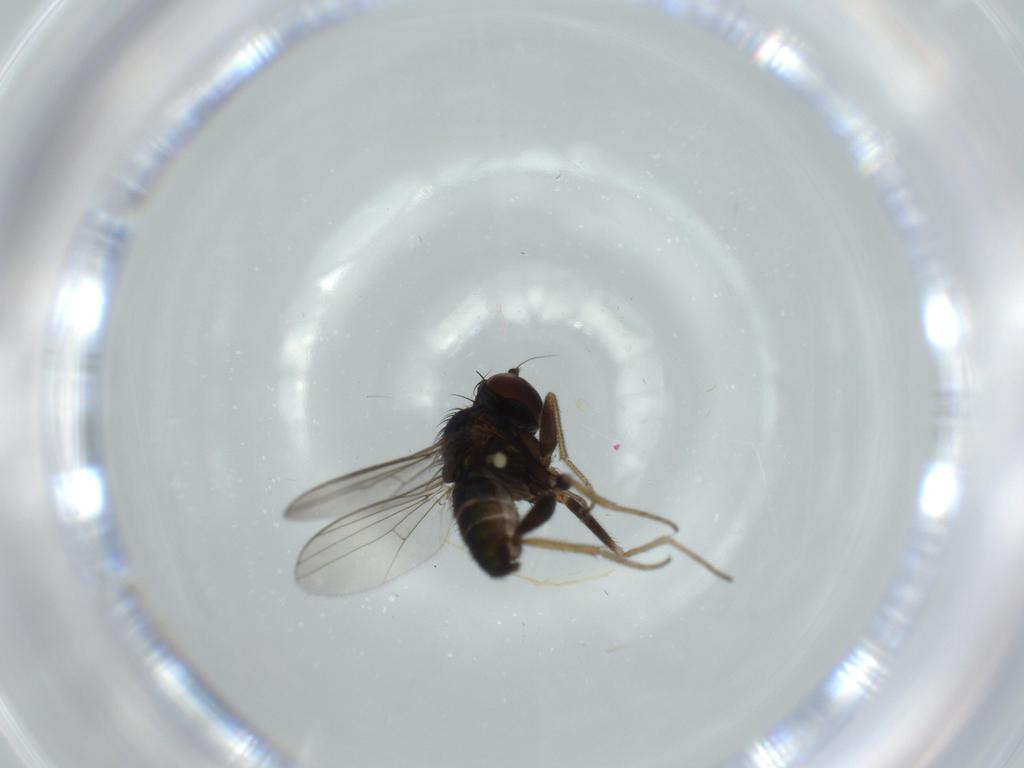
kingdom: Animalia
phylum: Arthropoda
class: Insecta
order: Diptera
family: Dolichopodidae
